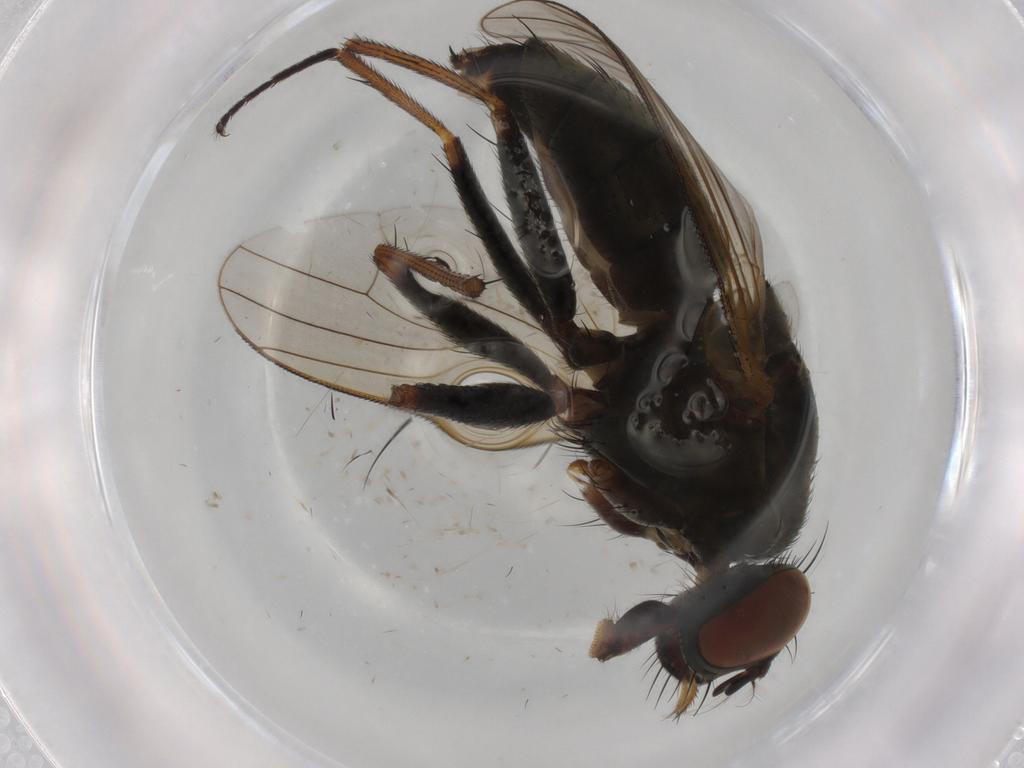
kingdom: Animalia
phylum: Arthropoda
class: Insecta
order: Diptera
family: Muscidae
